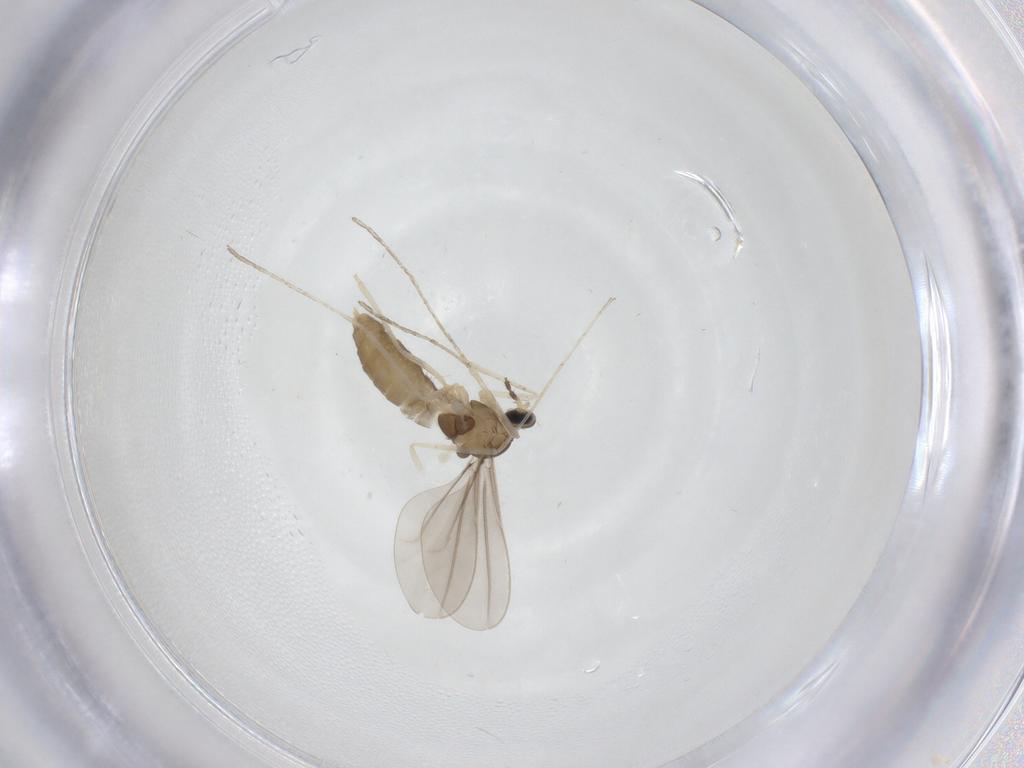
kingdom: Animalia
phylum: Arthropoda
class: Insecta
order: Diptera
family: Cecidomyiidae
